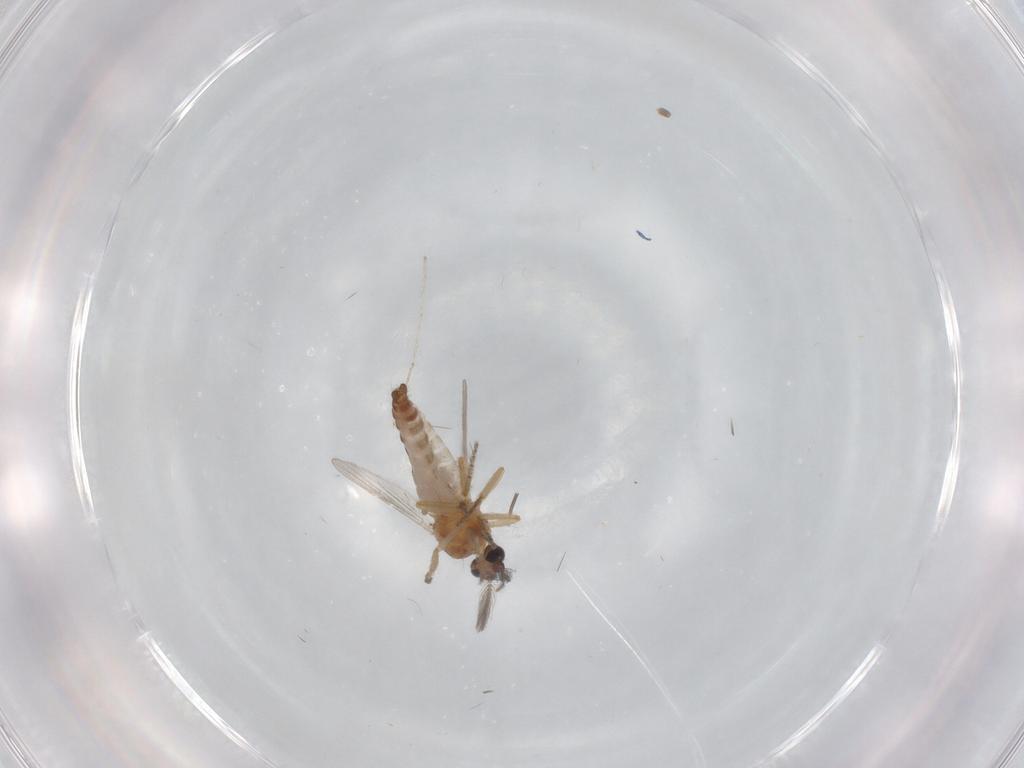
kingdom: Animalia
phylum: Arthropoda
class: Insecta
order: Diptera
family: Ceratopogonidae
